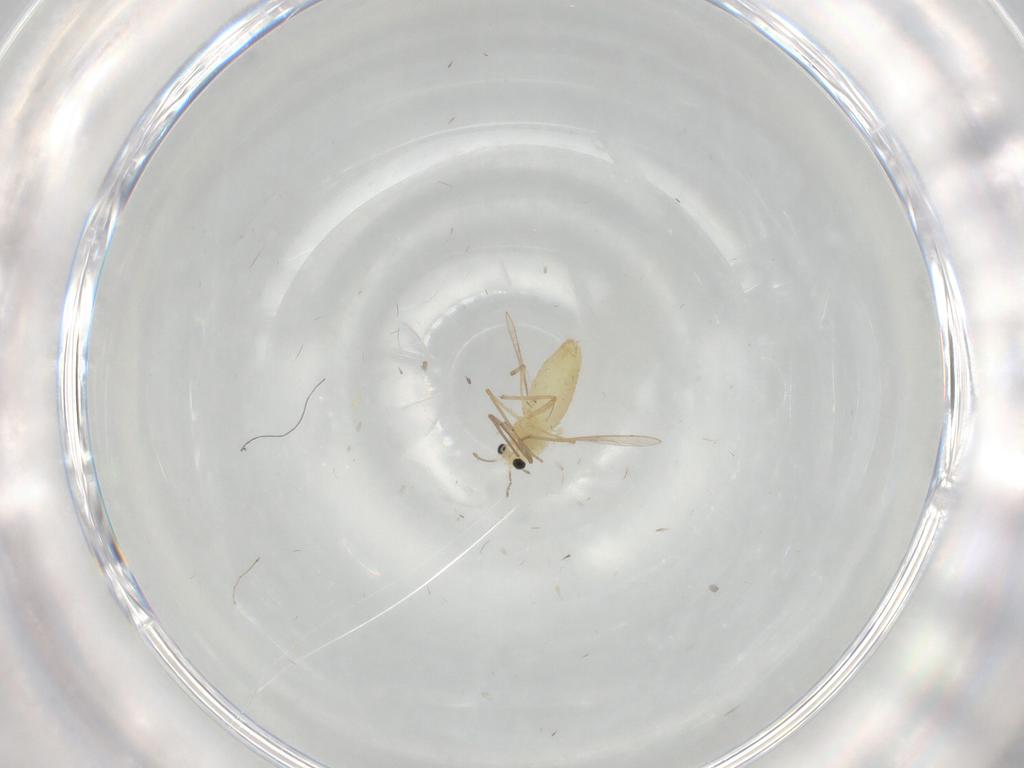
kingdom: Animalia
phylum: Arthropoda
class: Insecta
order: Diptera
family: Chironomidae
